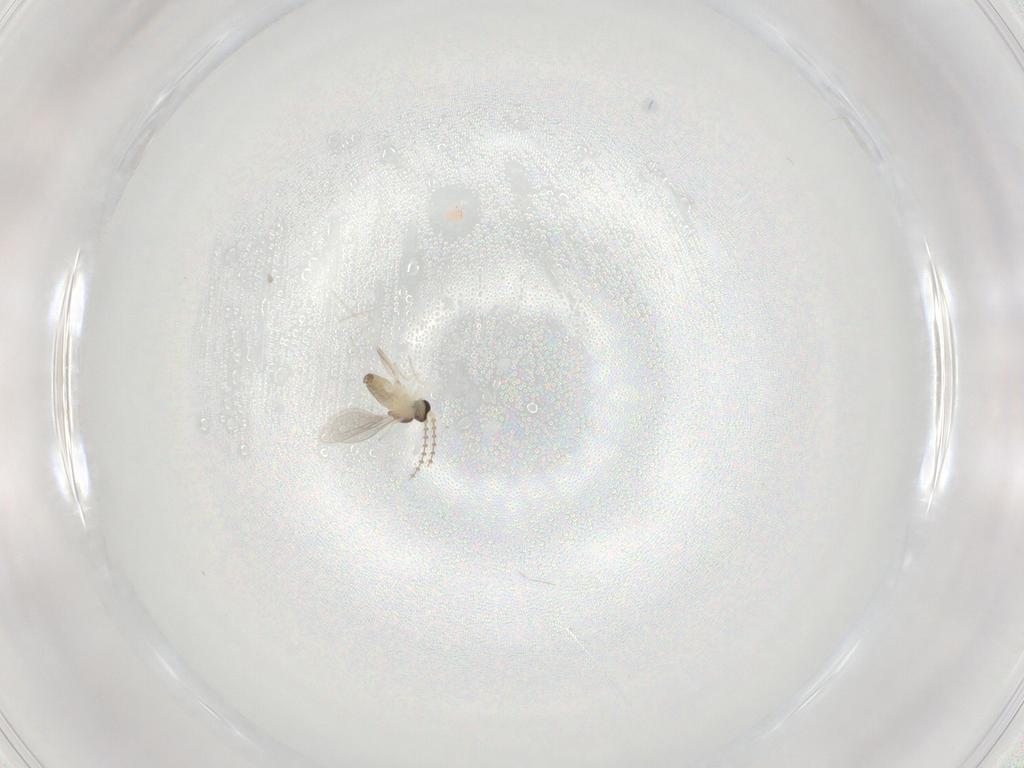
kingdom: Animalia
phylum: Arthropoda
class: Insecta
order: Diptera
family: Cecidomyiidae
